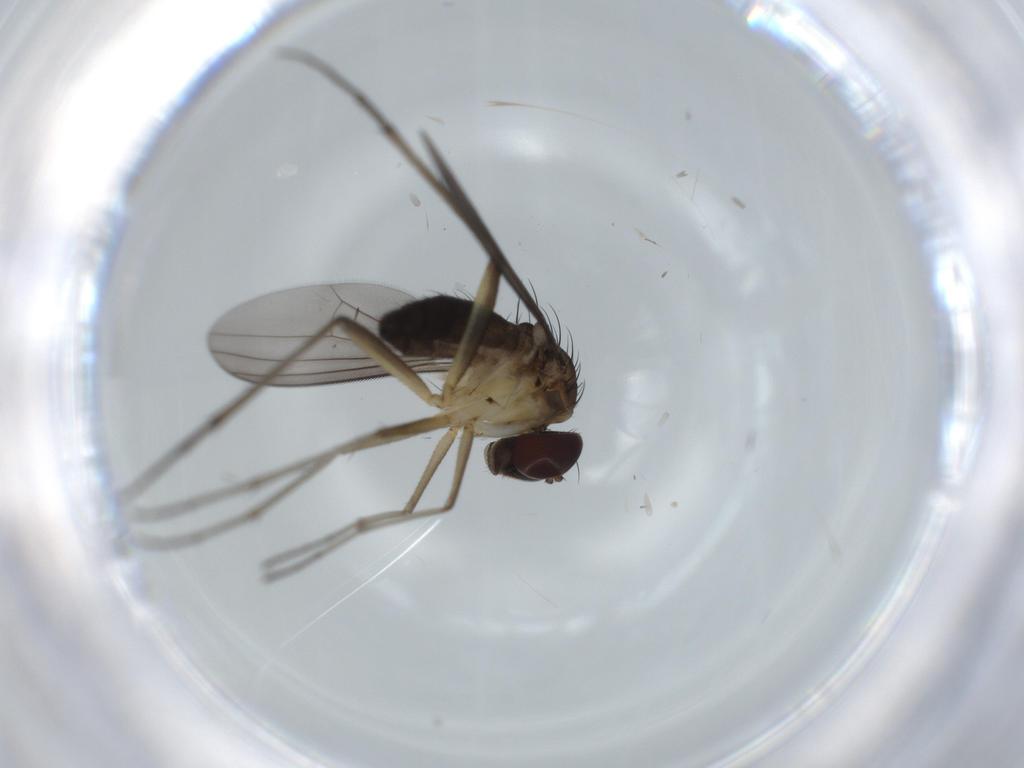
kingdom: Animalia
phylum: Arthropoda
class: Insecta
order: Diptera
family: Dolichopodidae
